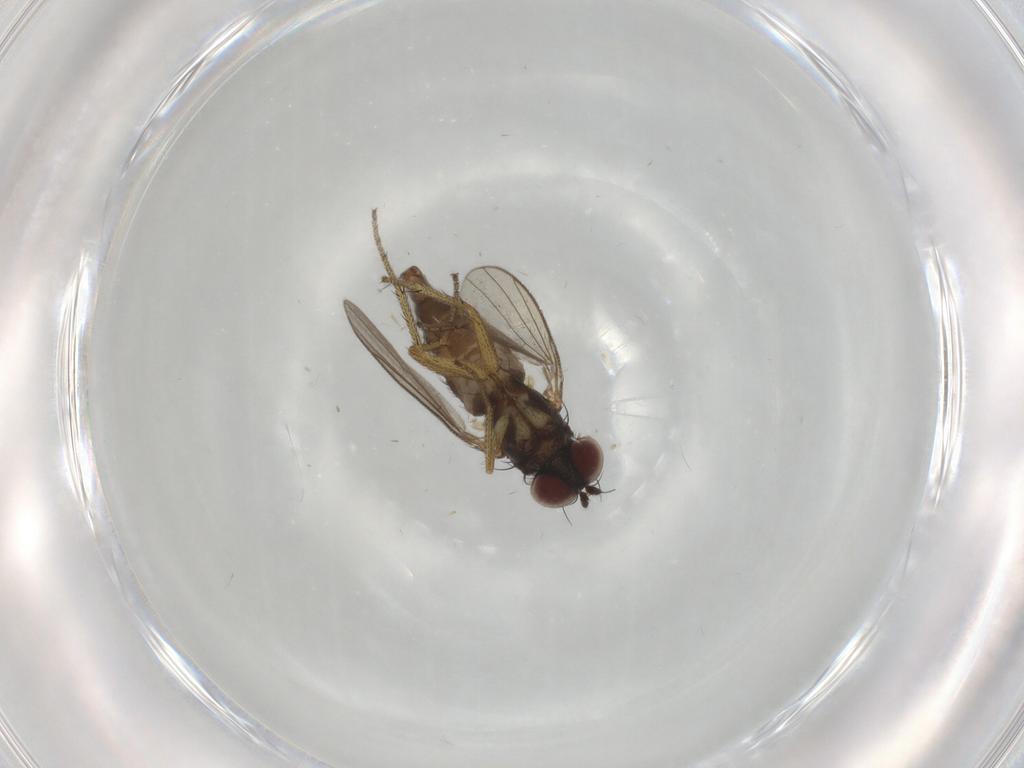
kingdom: Animalia
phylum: Arthropoda
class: Insecta
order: Diptera
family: Dolichopodidae
